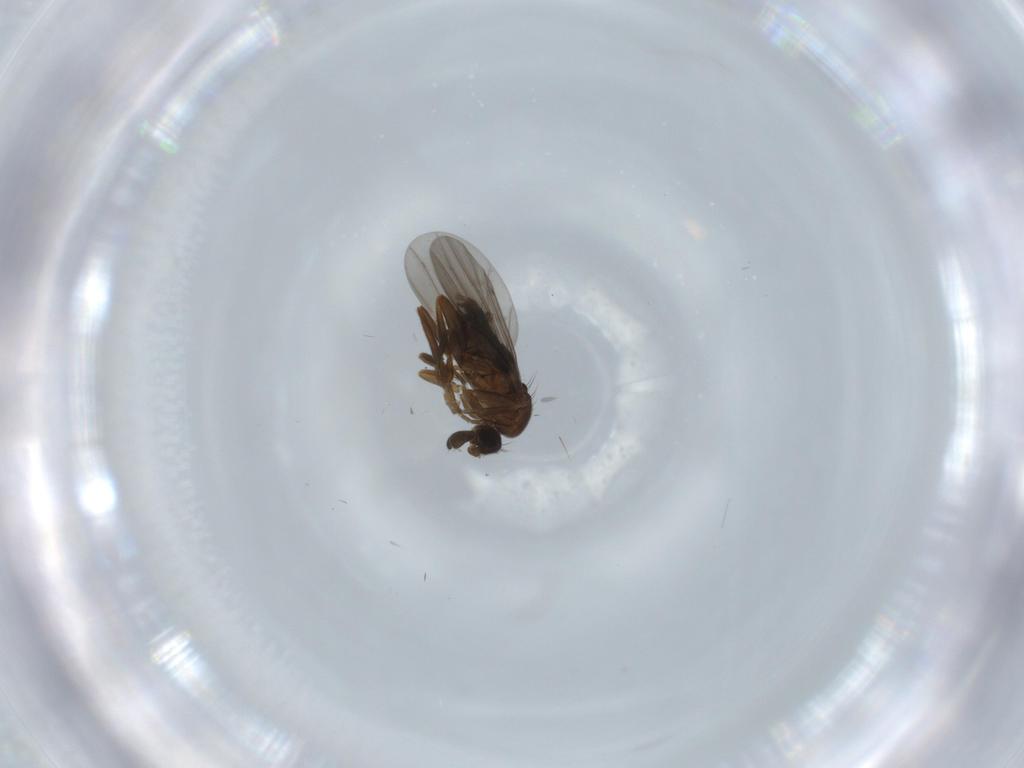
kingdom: Animalia
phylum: Arthropoda
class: Insecta
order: Diptera
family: Phoridae
